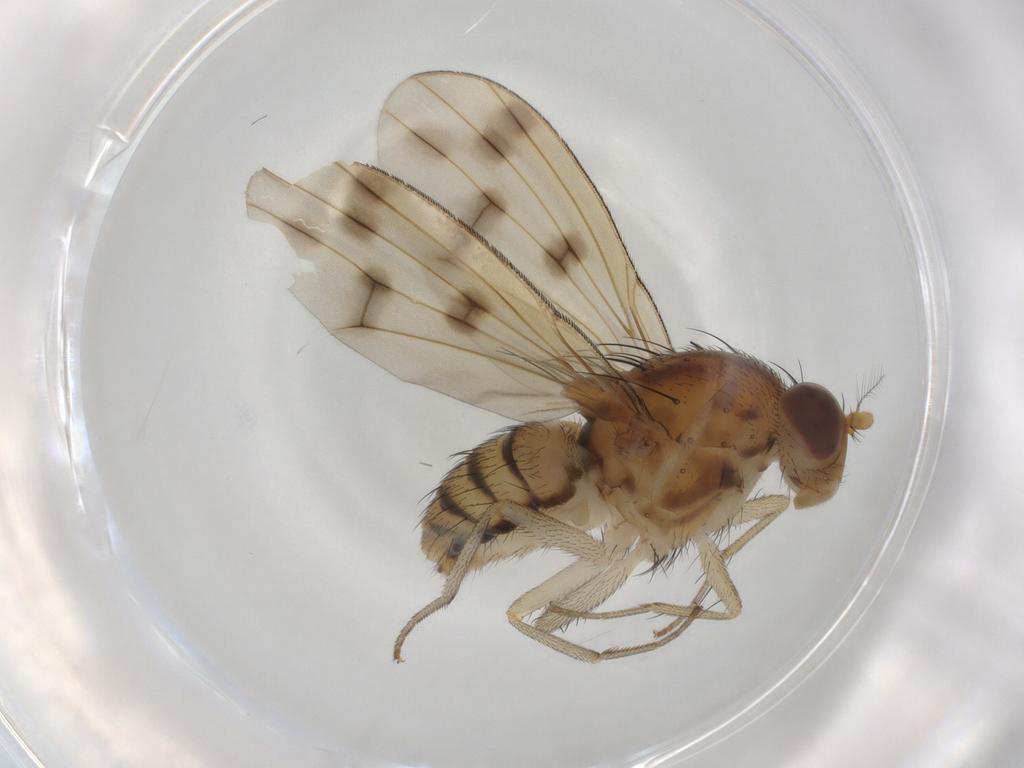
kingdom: Animalia
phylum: Arthropoda
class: Insecta
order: Diptera
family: Lauxaniidae
